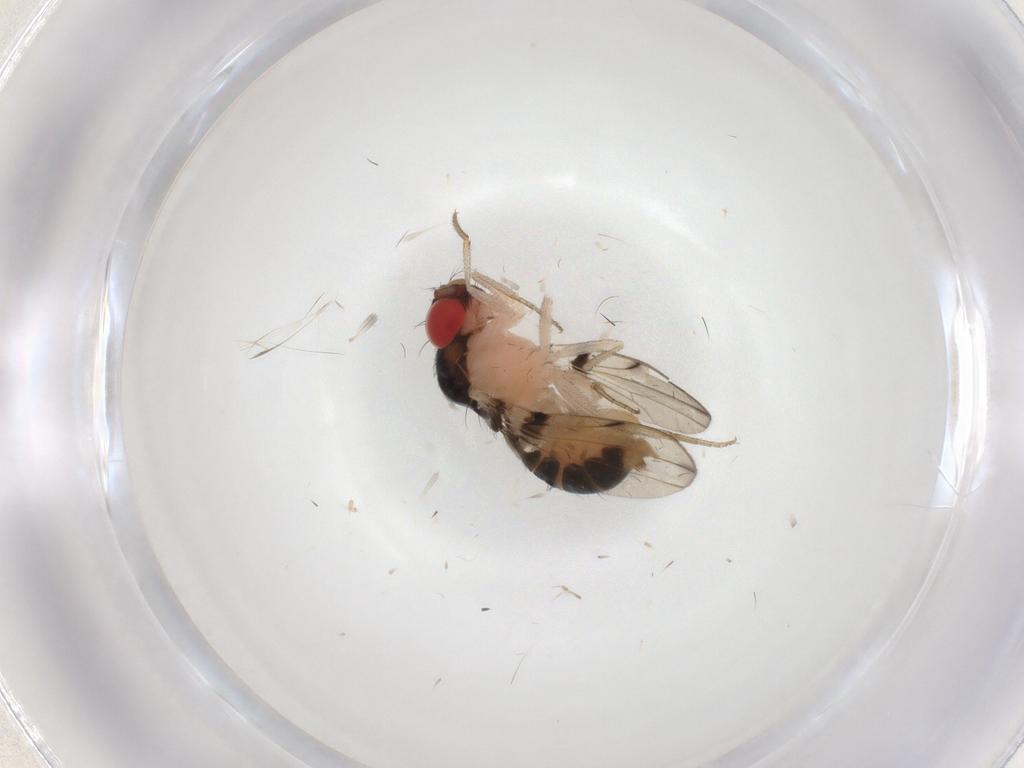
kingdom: Animalia
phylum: Arthropoda
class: Insecta
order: Diptera
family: Drosophilidae
